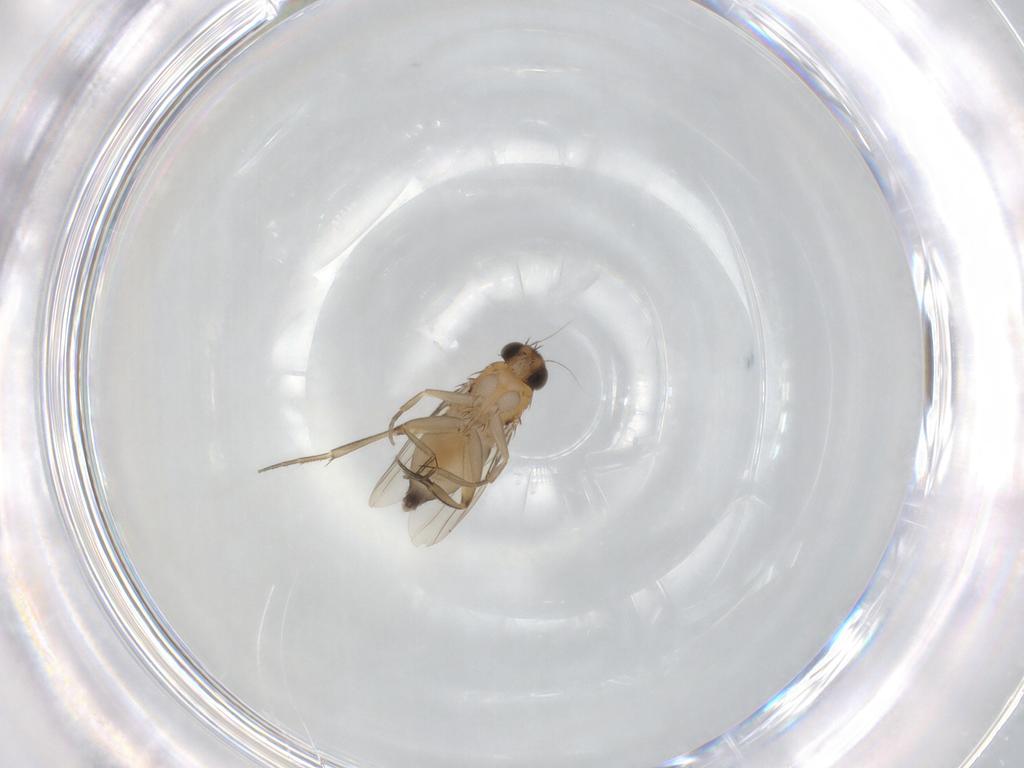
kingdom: Animalia
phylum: Arthropoda
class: Insecta
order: Diptera
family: Phoridae
